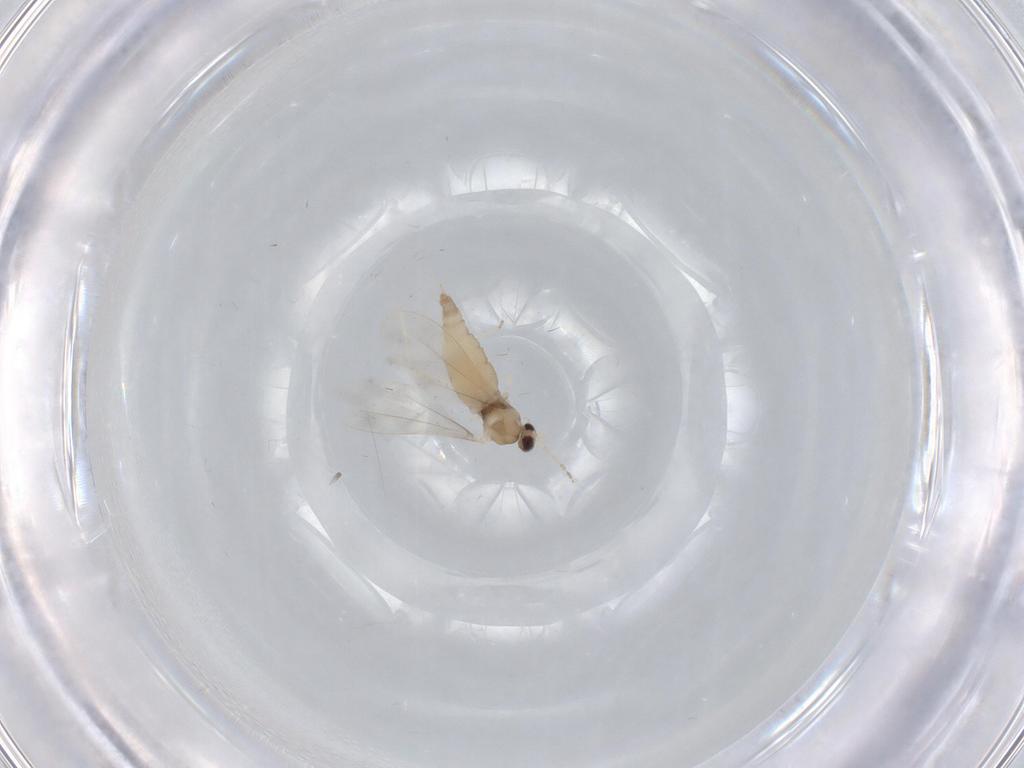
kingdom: Animalia
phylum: Arthropoda
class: Insecta
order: Diptera
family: Cecidomyiidae
